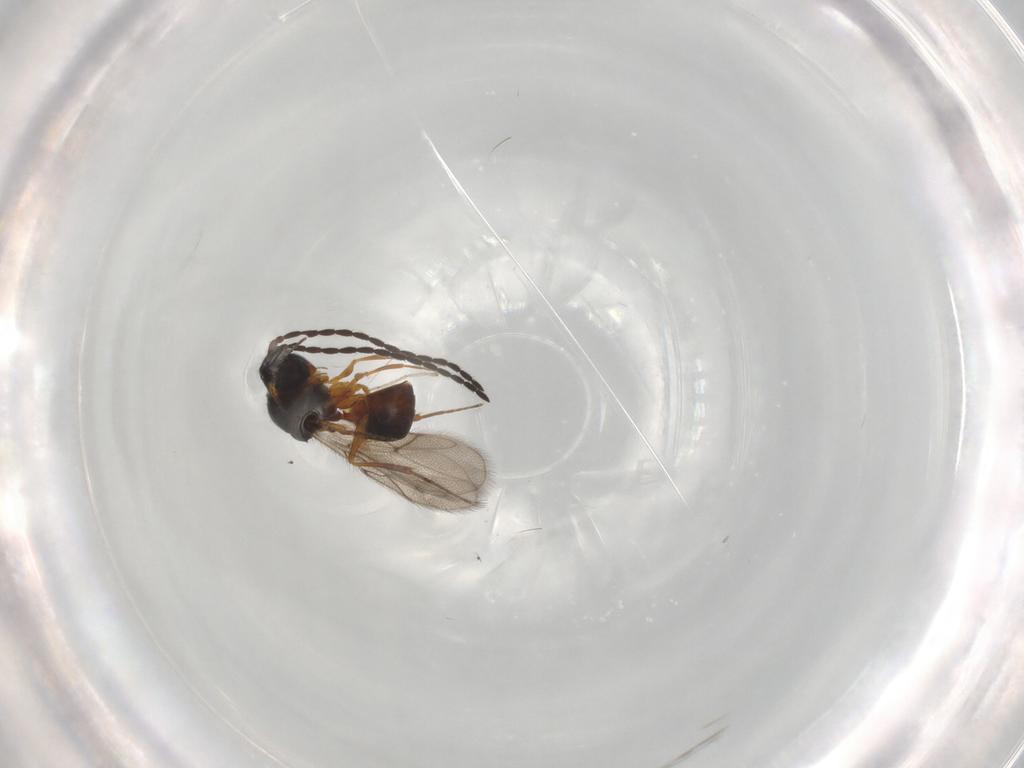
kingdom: Animalia
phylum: Arthropoda
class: Insecta
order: Hymenoptera
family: Figitidae
